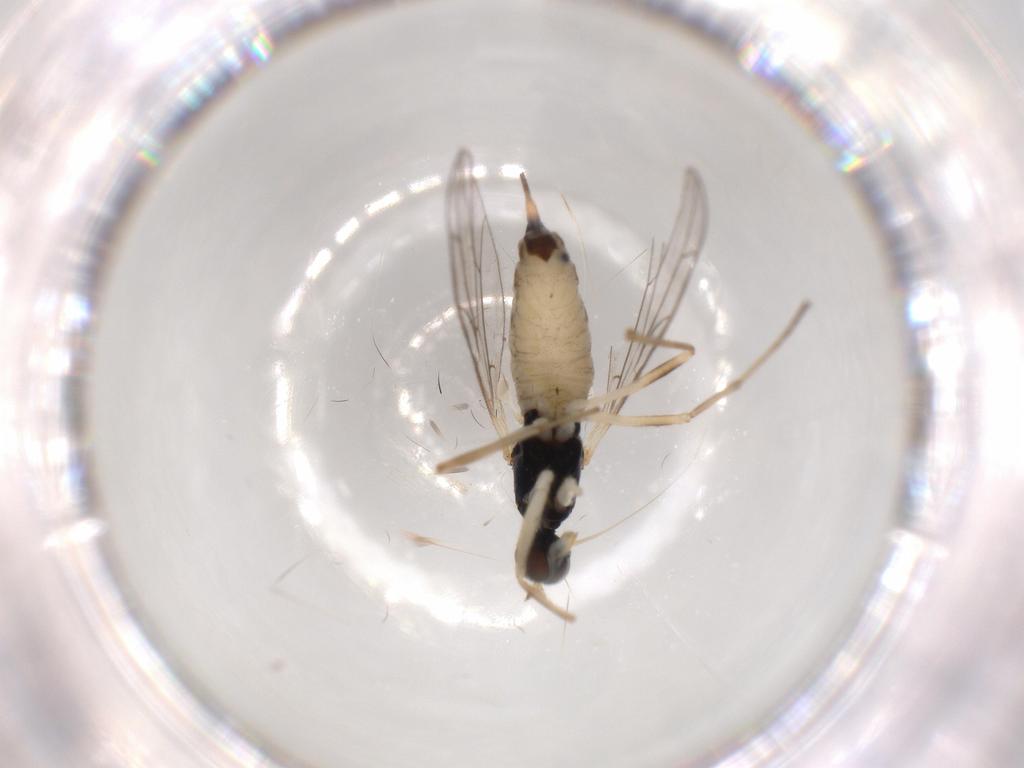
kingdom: Animalia
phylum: Arthropoda
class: Insecta
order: Diptera
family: Empididae
